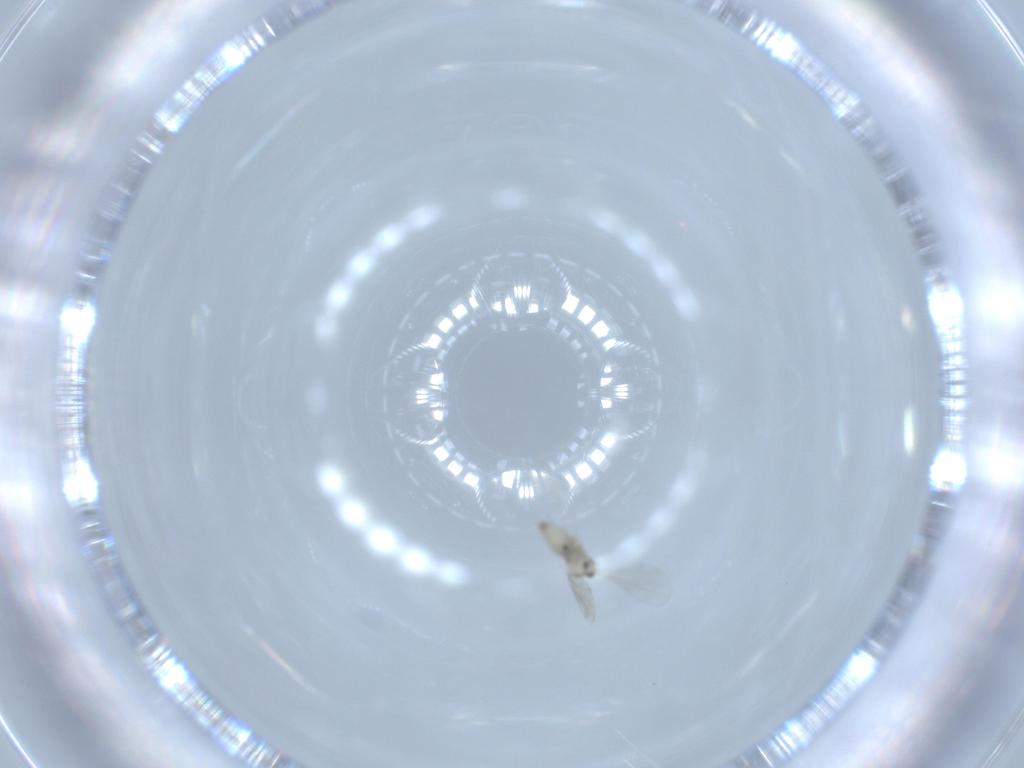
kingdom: Animalia
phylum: Arthropoda
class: Insecta
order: Diptera
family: Cecidomyiidae
